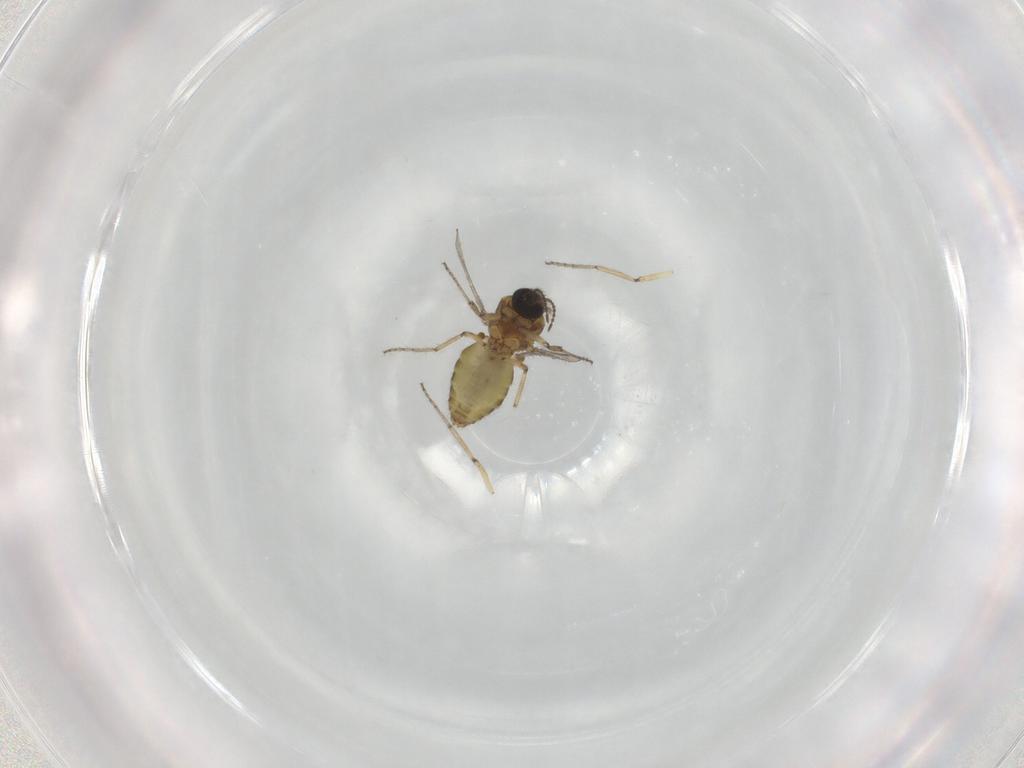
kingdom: Animalia
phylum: Arthropoda
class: Insecta
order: Diptera
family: Ceratopogonidae
